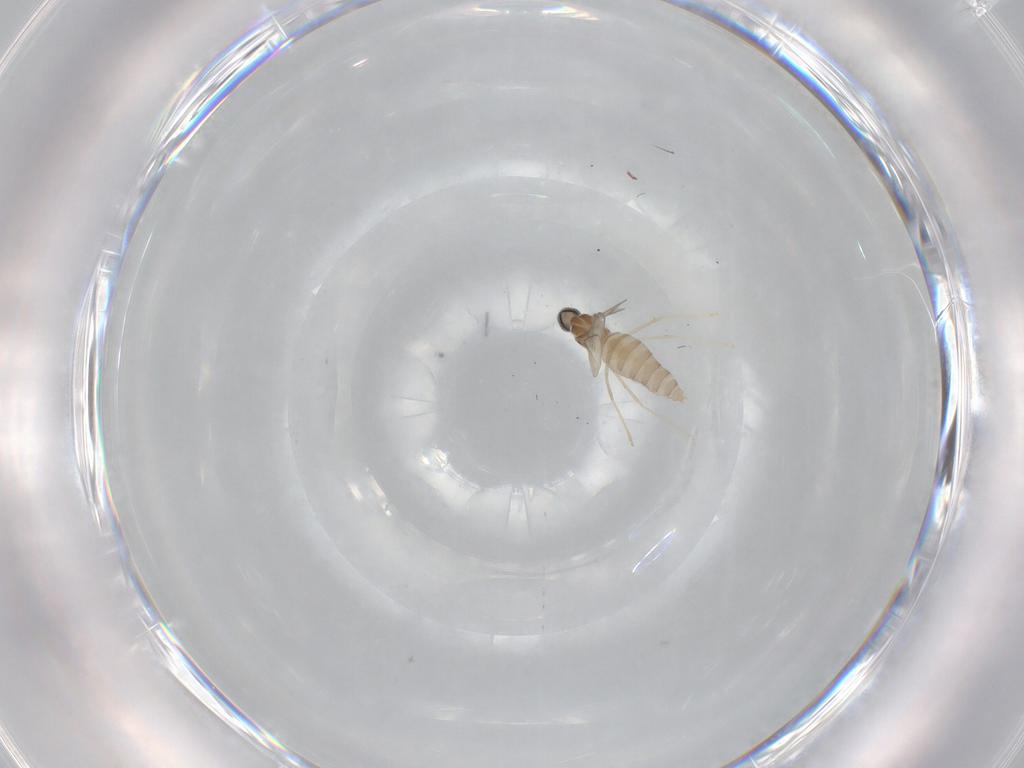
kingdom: Animalia
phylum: Arthropoda
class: Insecta
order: Diptera
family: Cecidomyiidae
